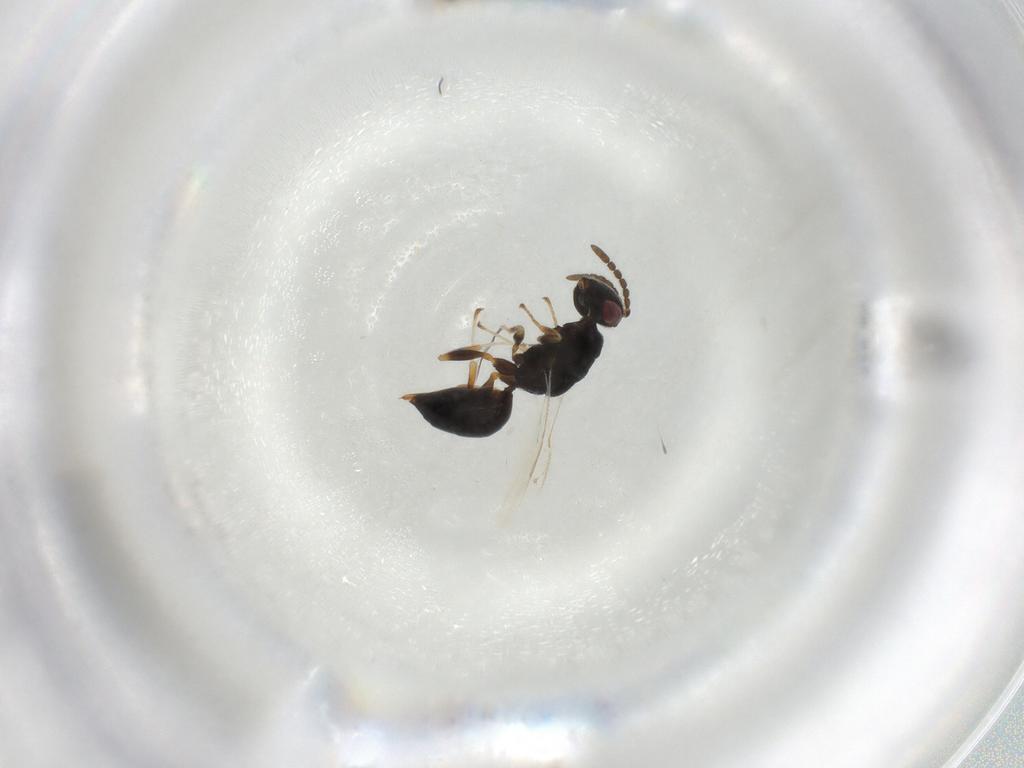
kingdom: Animalia
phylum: Arthropoda
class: Insecta
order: Hymenoptera
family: Eurytomidae
